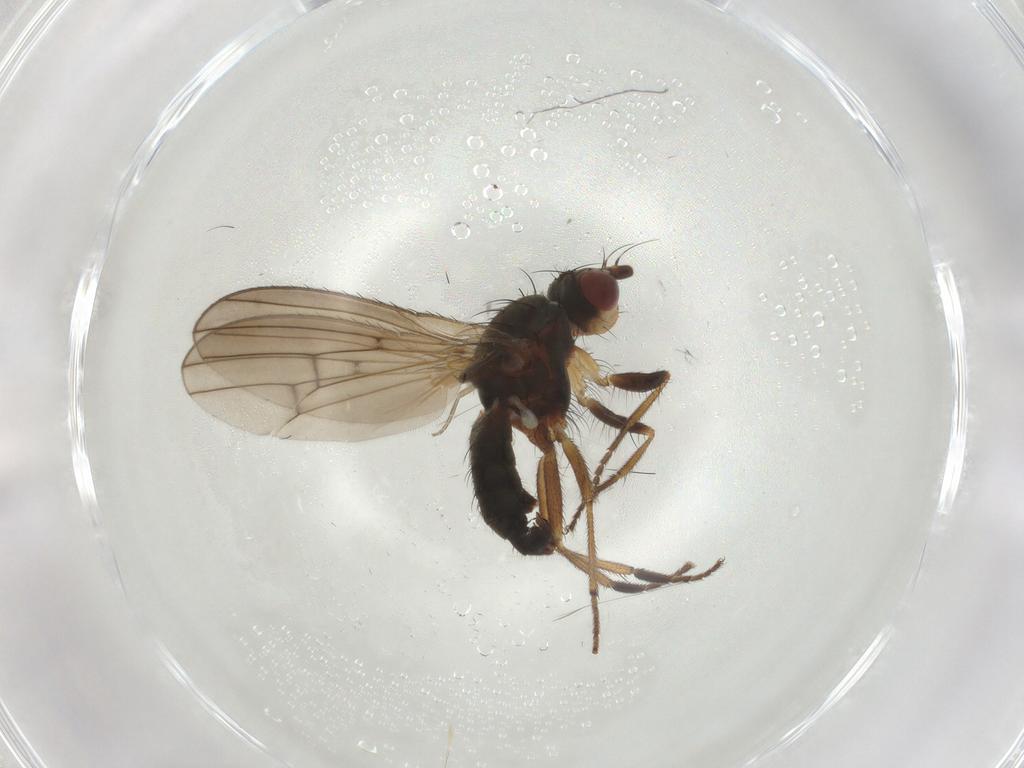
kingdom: Animalia
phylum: Arthropoda
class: Insecta
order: Diptera
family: Heleomyzidae
